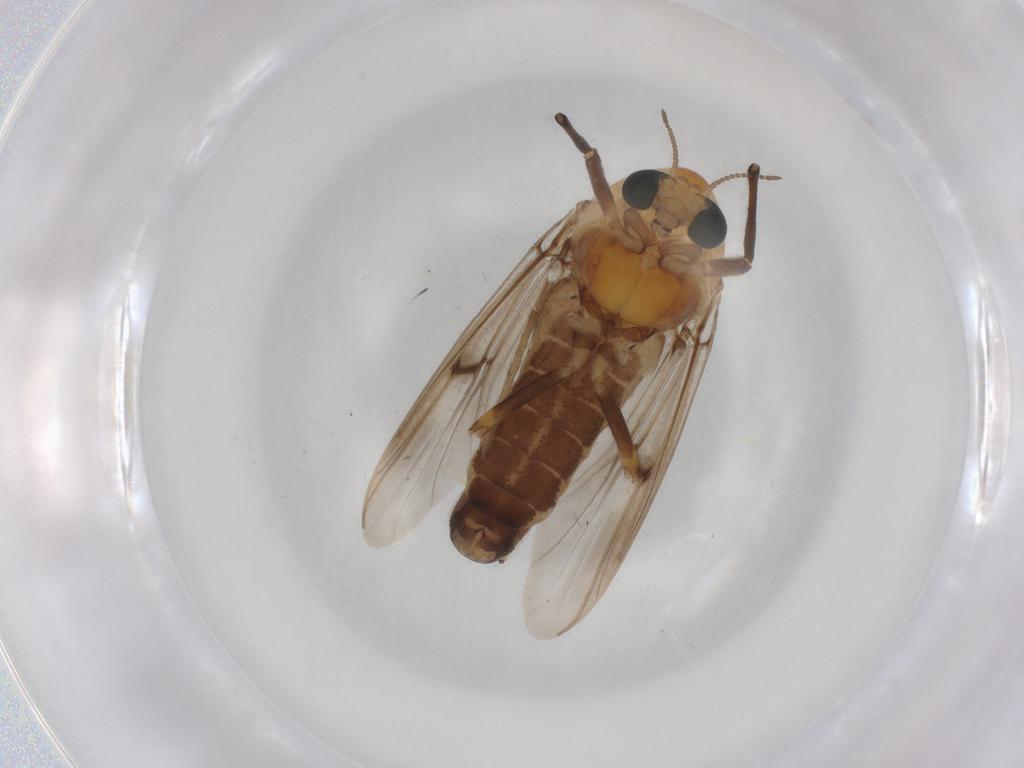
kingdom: Animalia
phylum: Arthropoda
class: Insecta
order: Diptera
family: Chironomidae
